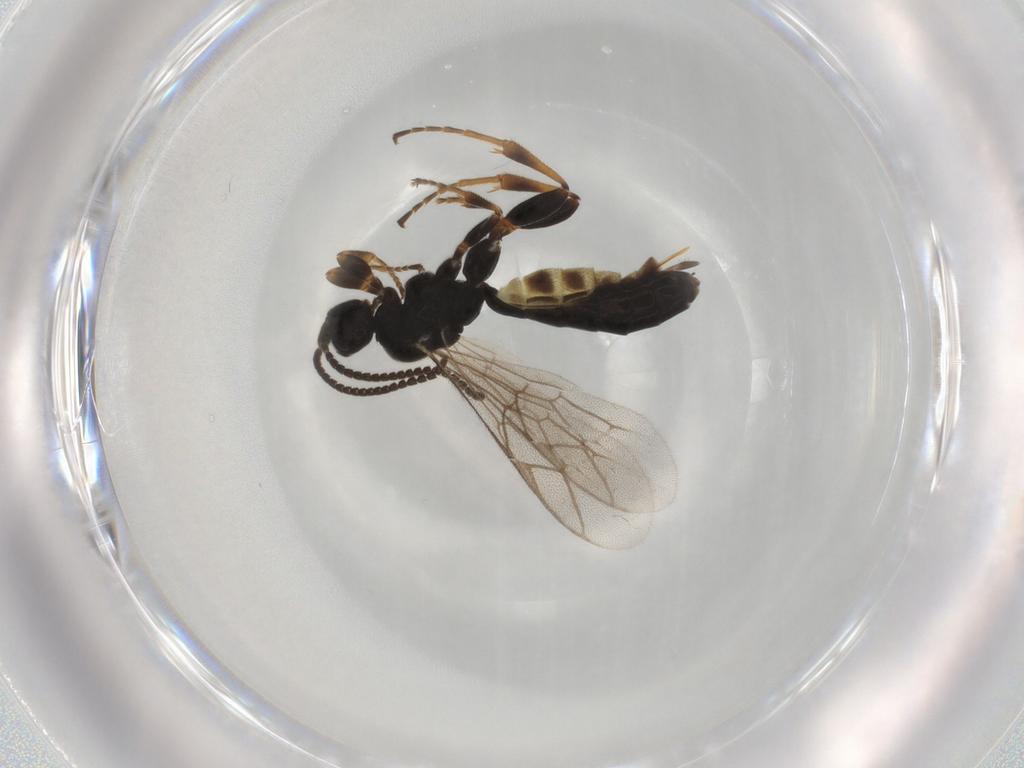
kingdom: Animalia
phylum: Arthropoda
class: Insecta
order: Hymenoptera
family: Ichneumonidae
